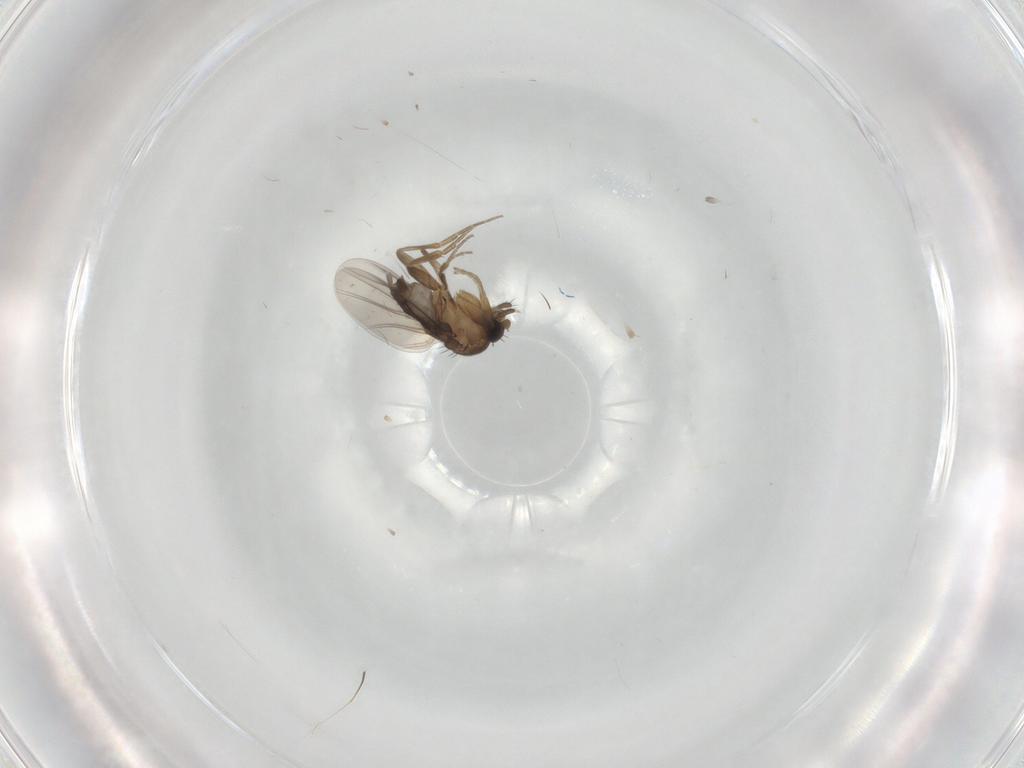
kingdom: Animalia
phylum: Arthropoda
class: Insecta
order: Diptera
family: Phoridae
